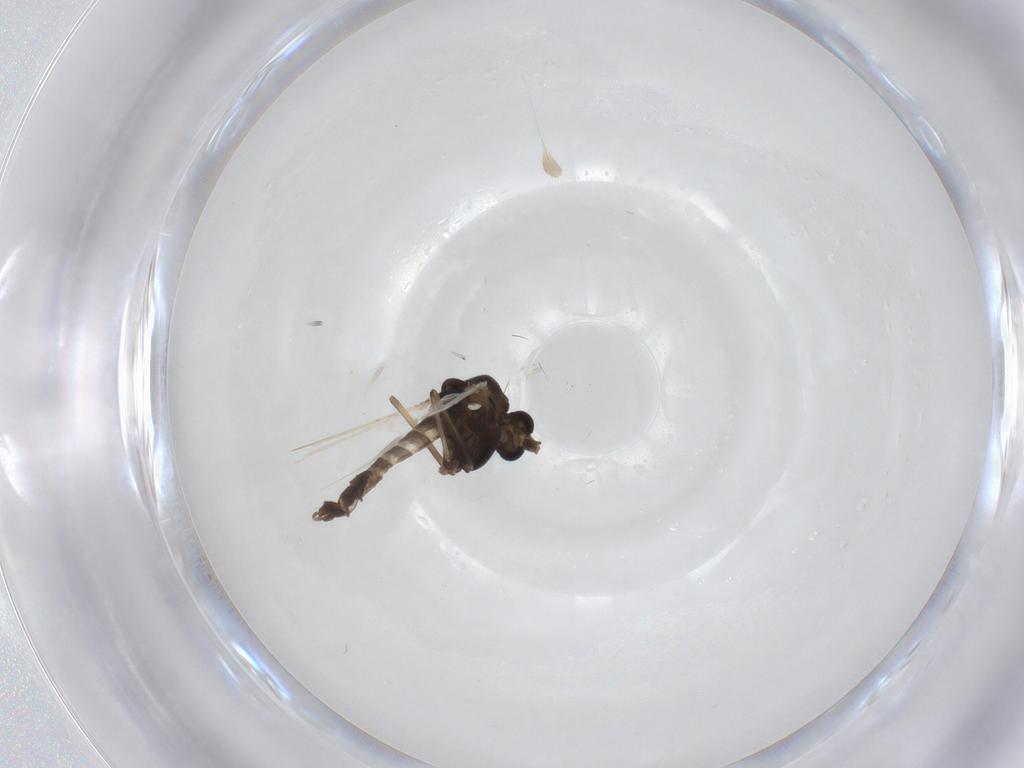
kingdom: Animalia
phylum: Arthropoda
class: Insecta
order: Diptera
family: Chironomidae
